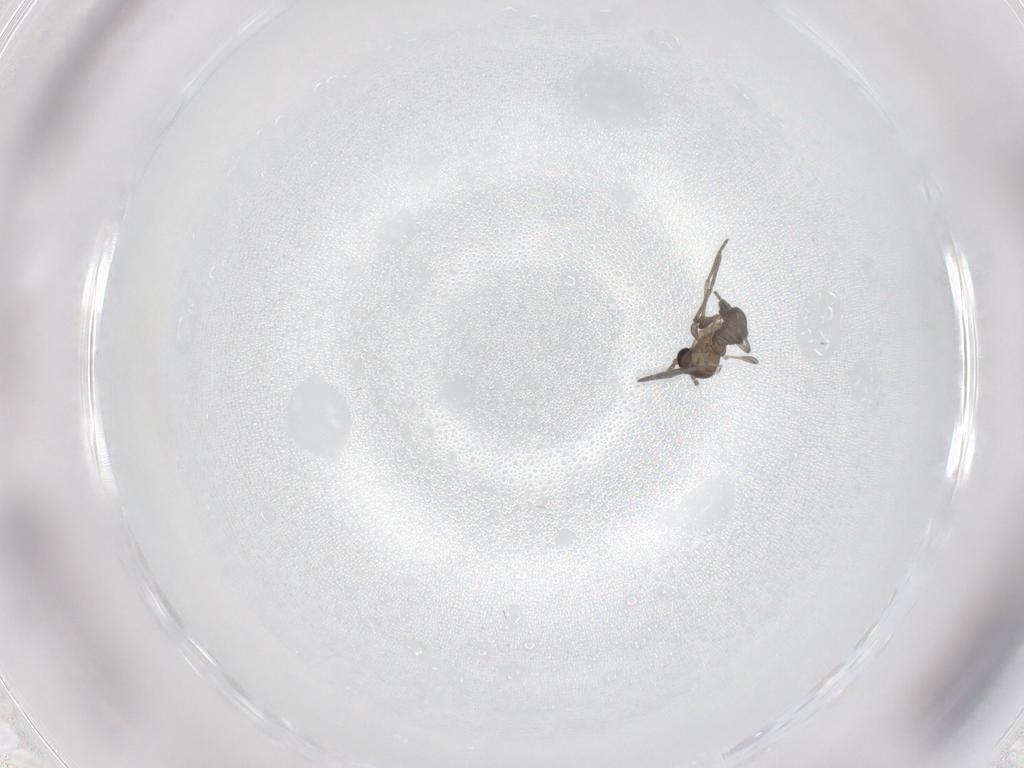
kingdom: Animalia
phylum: Arthropoda
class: Insecta
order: Diptera
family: Sciaridae
